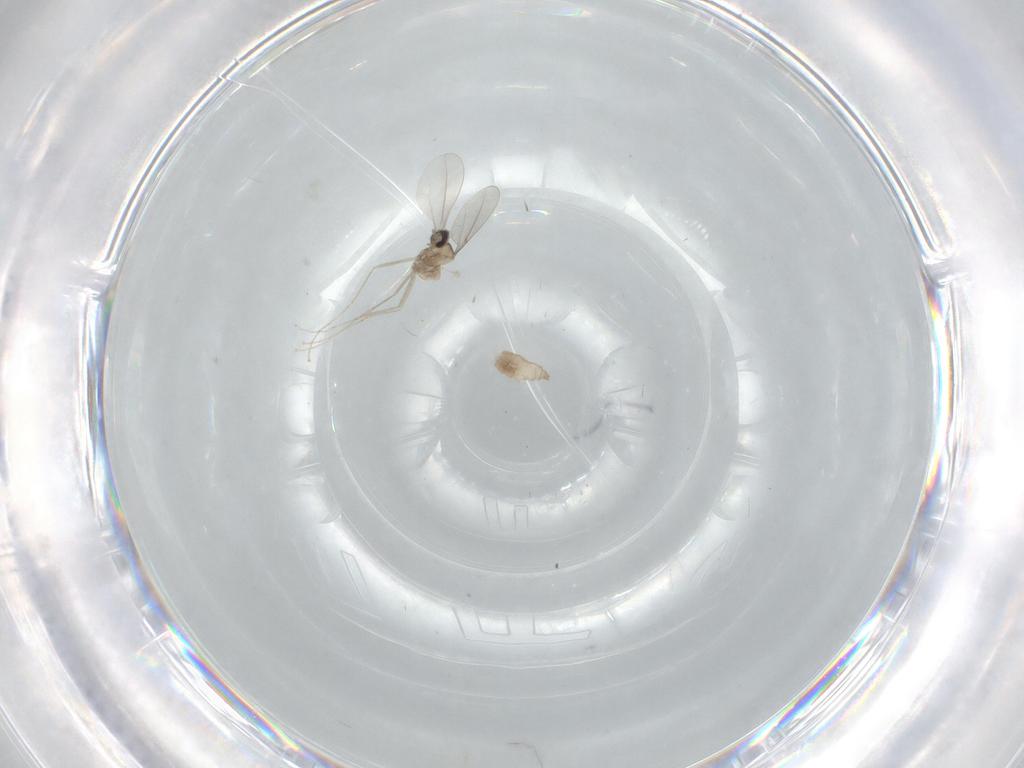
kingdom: Animalia
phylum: Arthropoda
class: Insecta
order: Diptera
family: Cecidomyiidae
